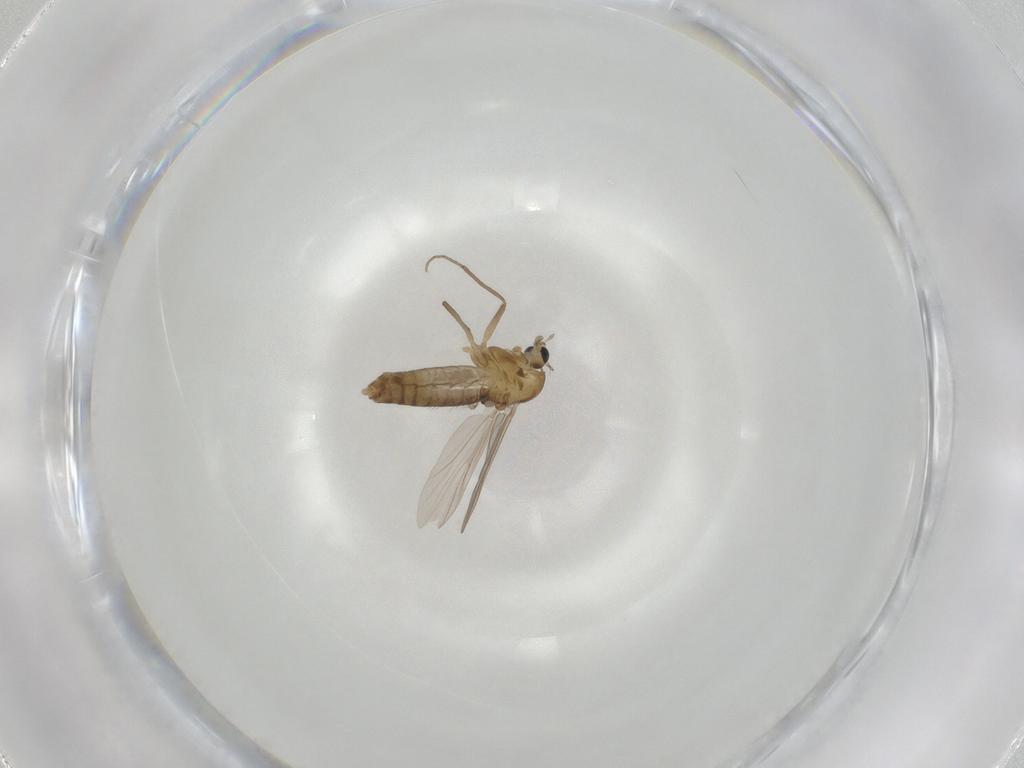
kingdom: Animalia
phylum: Arthropoda
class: Insecta
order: Diptera
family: Chironomidae
